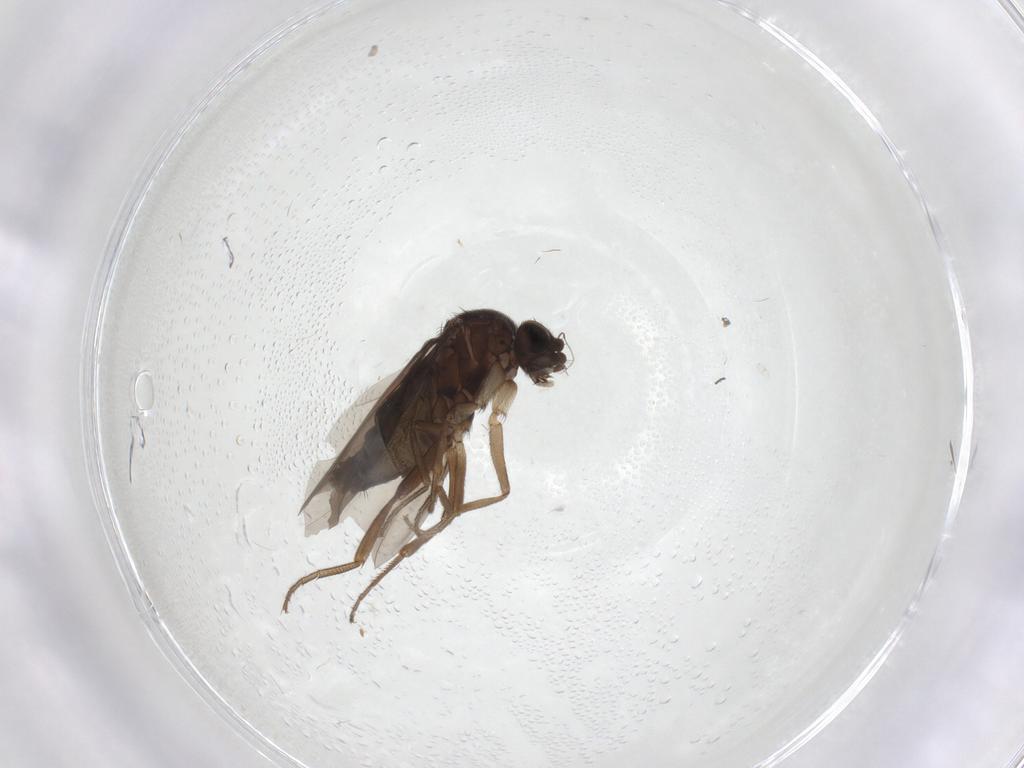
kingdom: Animalia
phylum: Arthropoda
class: Insecta
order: Diptera
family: Phoridae
